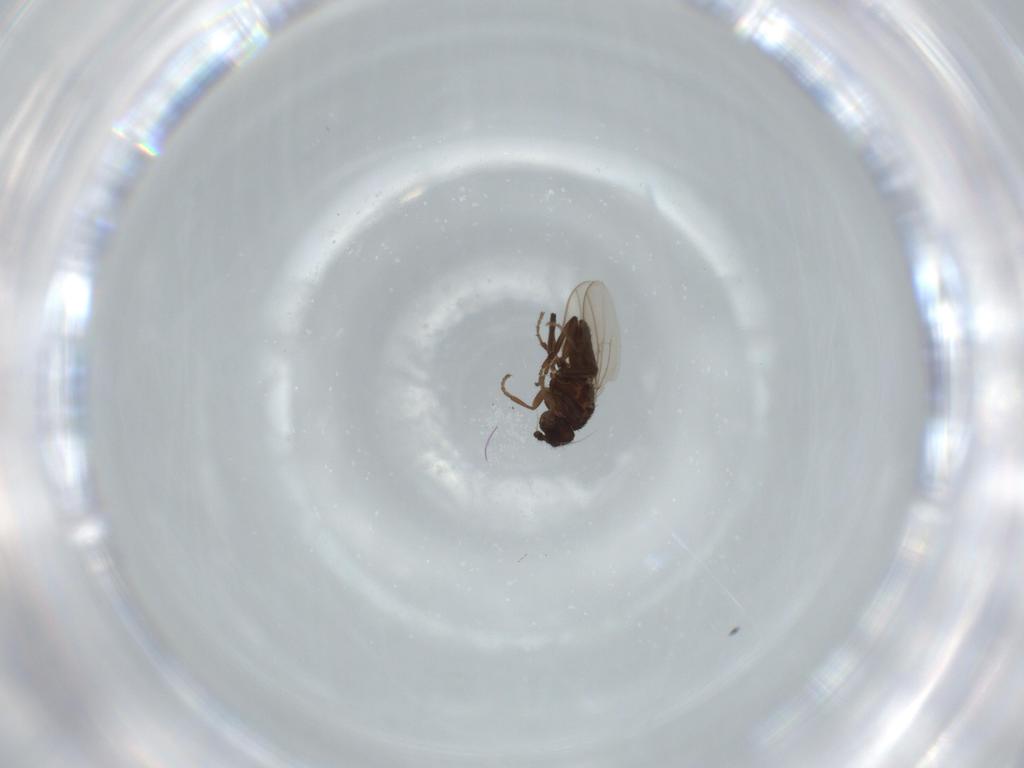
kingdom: Animalia
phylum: Arthropoda
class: Insecta
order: Diptera
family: Sphaeroceridae
